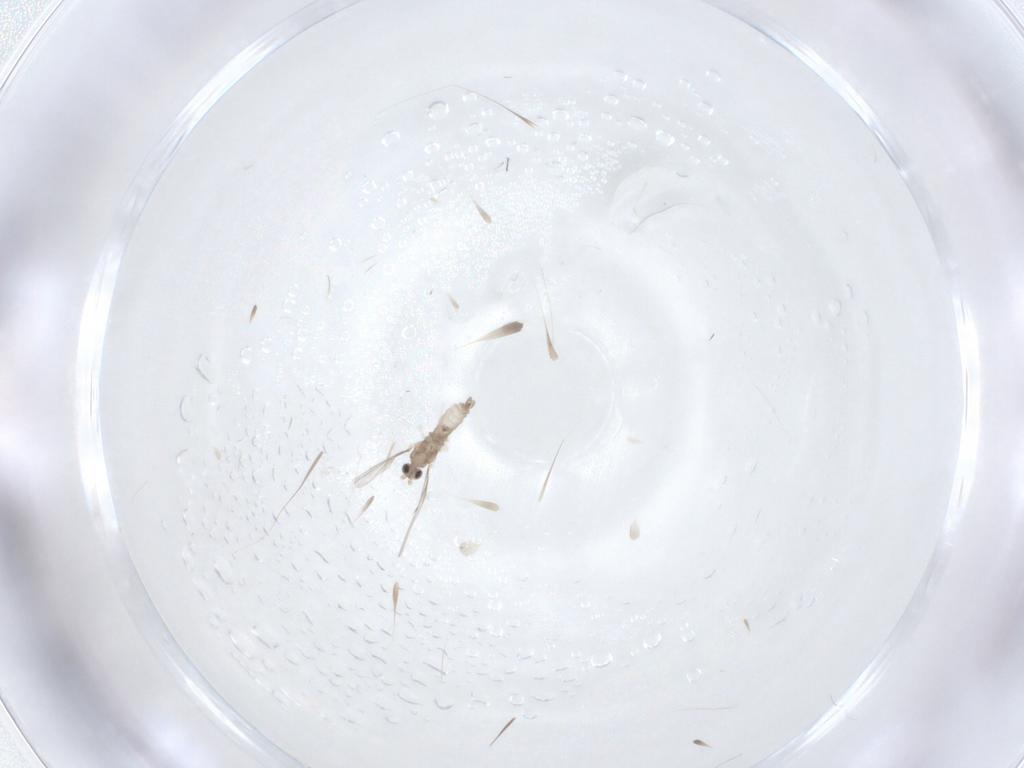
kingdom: Animalia
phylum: Arthropoda
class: Insecta
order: Diptera
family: Cecidomyiidae
